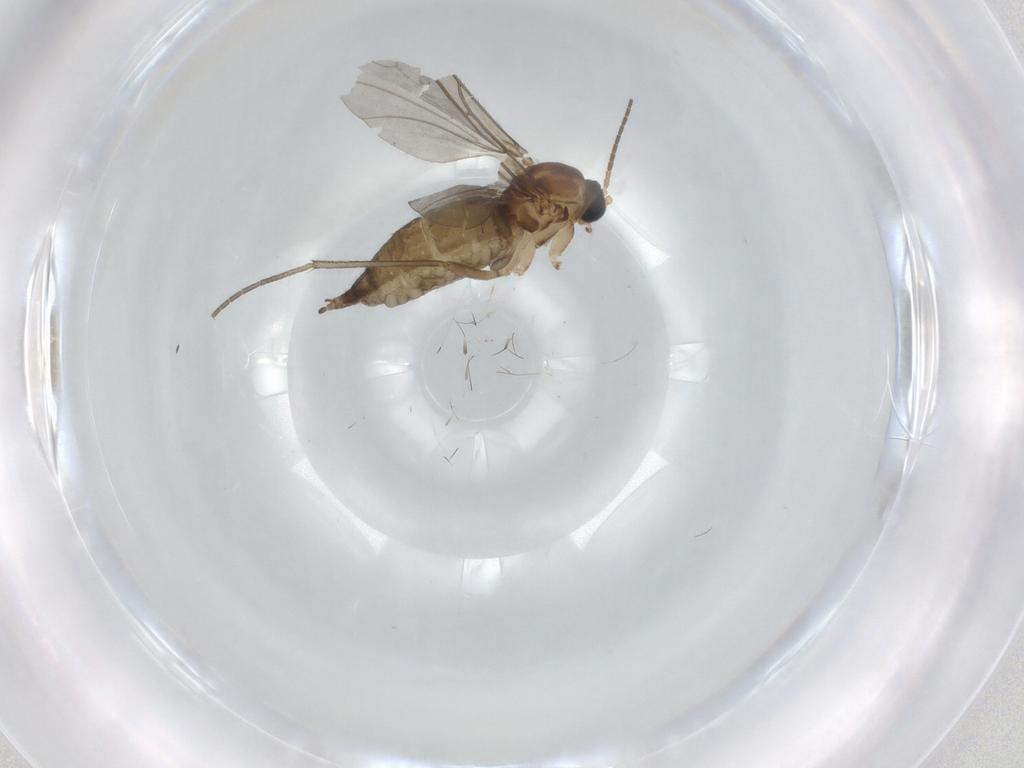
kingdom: Animalia
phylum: Arthropoda
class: Insecta
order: Diptera
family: Sciaridae
